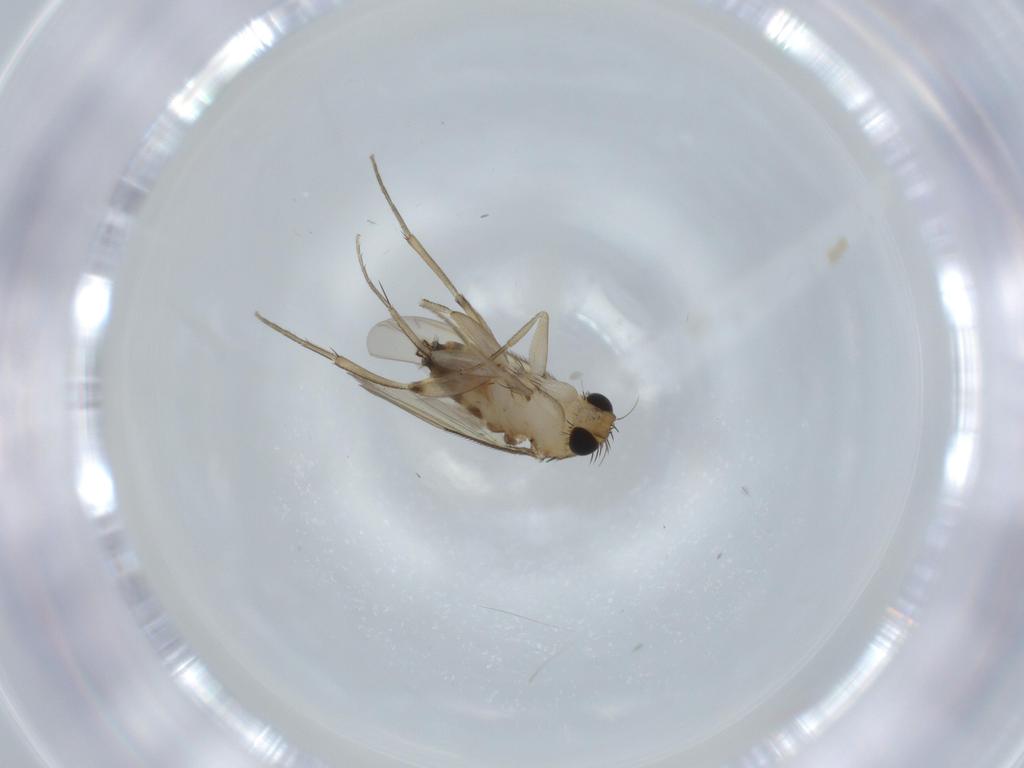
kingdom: Animalia
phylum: Arthropoda
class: Insecta
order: Diptera
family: Phoridae
